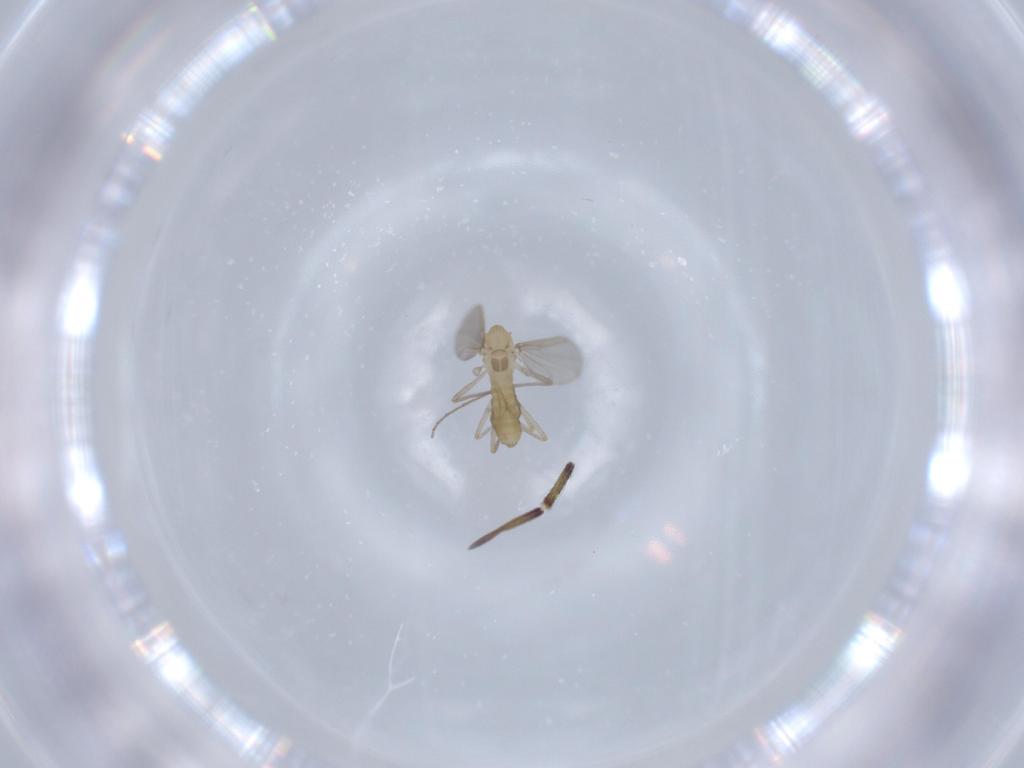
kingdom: Animalia
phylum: Arthropoda
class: Insecta
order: Diptera
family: Chironomidae
